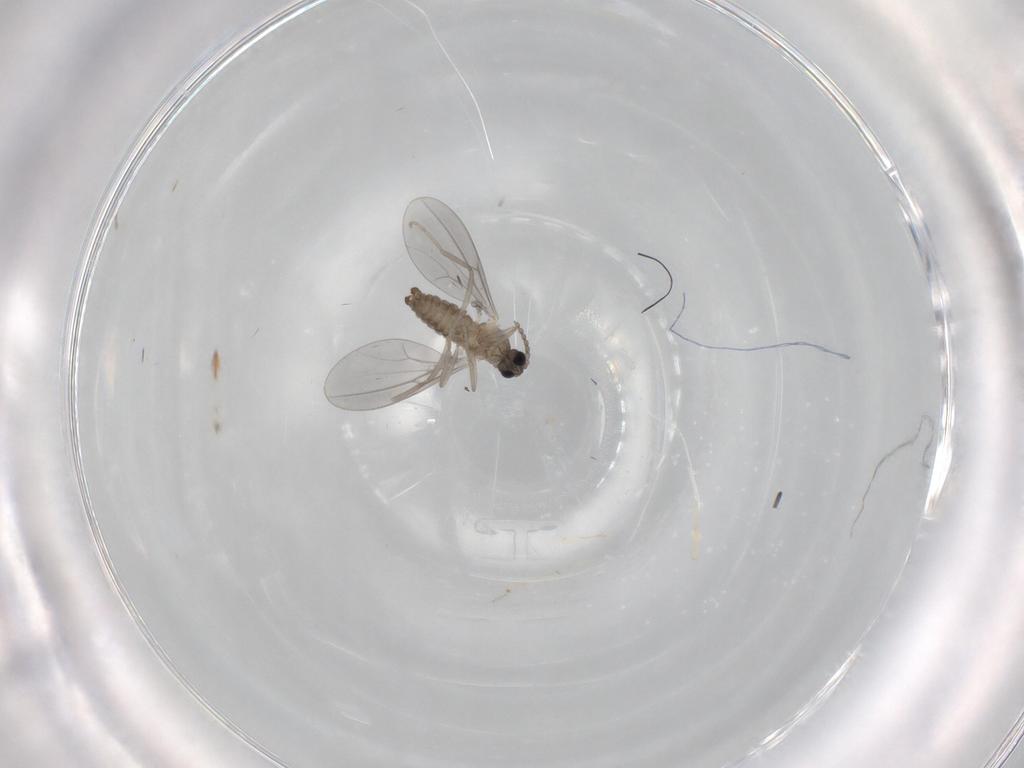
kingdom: Animalia
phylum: Arthropoda
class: Insecta
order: Diptera
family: Cecidomyiidae
